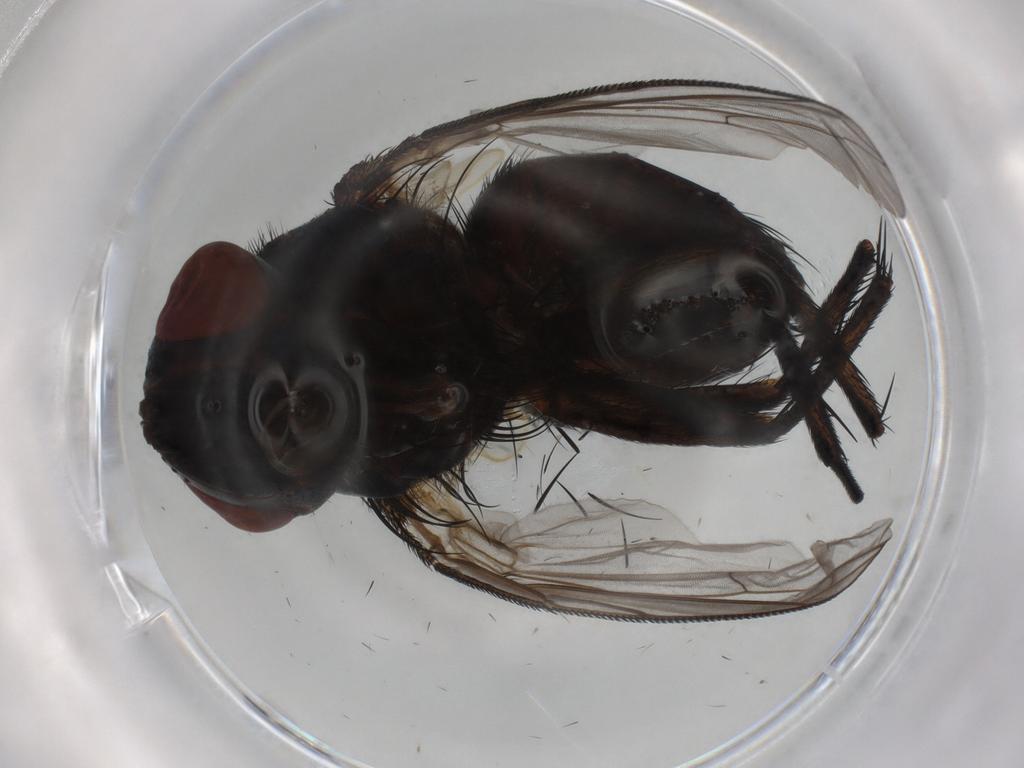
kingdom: Animalia
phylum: Arthropoda
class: Insecta
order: Diptera
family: Tachinidae
